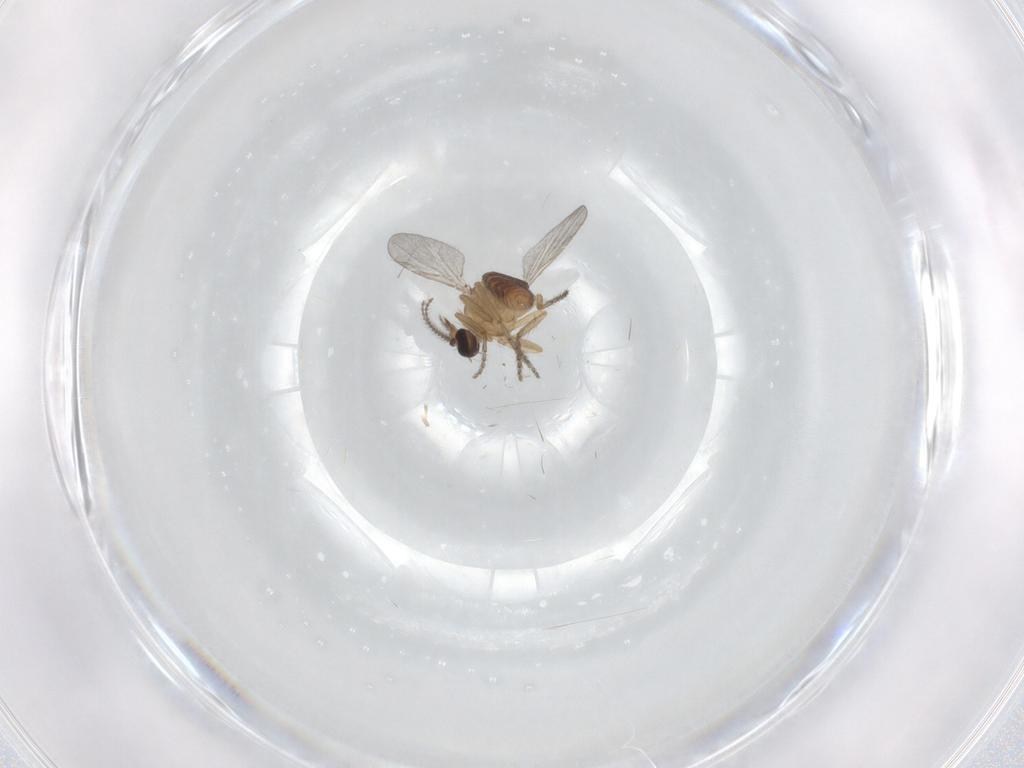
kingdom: Animalia
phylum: Arthropoda
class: Insecta
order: Diptera
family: Ceratopogonidae
